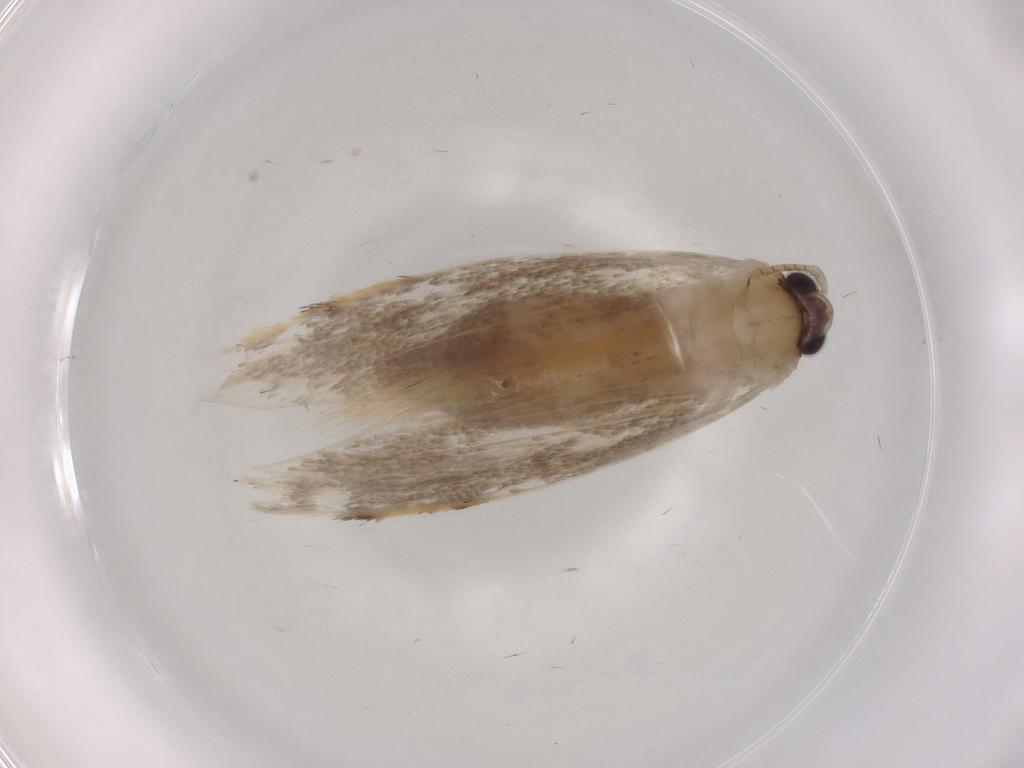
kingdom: Animalia
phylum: Arthropoda
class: Insecta
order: Lepidoptera
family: Tineidae
